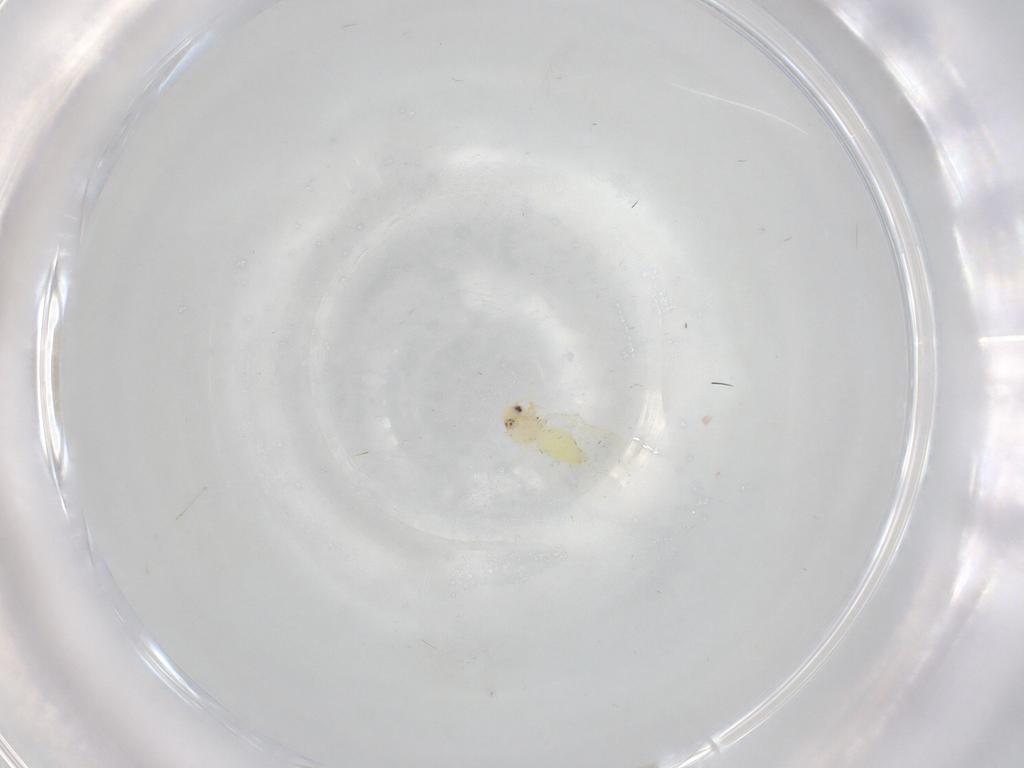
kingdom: Animalia
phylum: Arthropoda
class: Insecta
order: Hemiptera
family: Aleyrodidae
